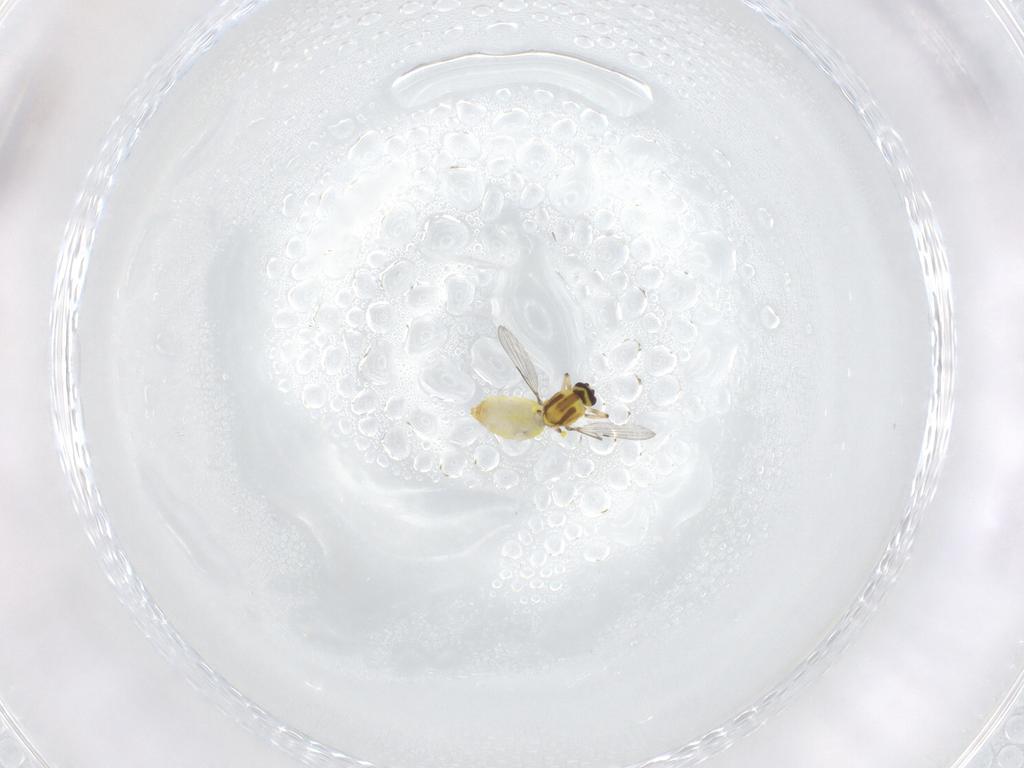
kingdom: Animalia
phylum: Arthropoda
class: Insecta
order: Diptera
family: Ceratopogonidae
